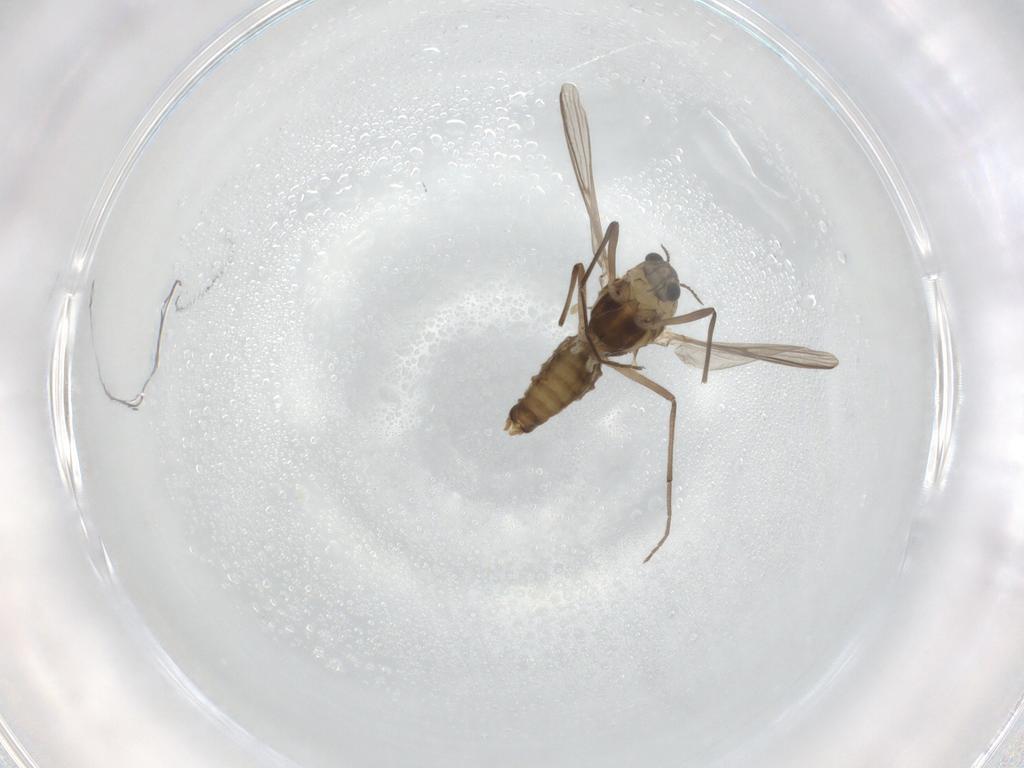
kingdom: Animalia
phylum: Arthropoda
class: Insecta
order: Diptera
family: Chironomidae
